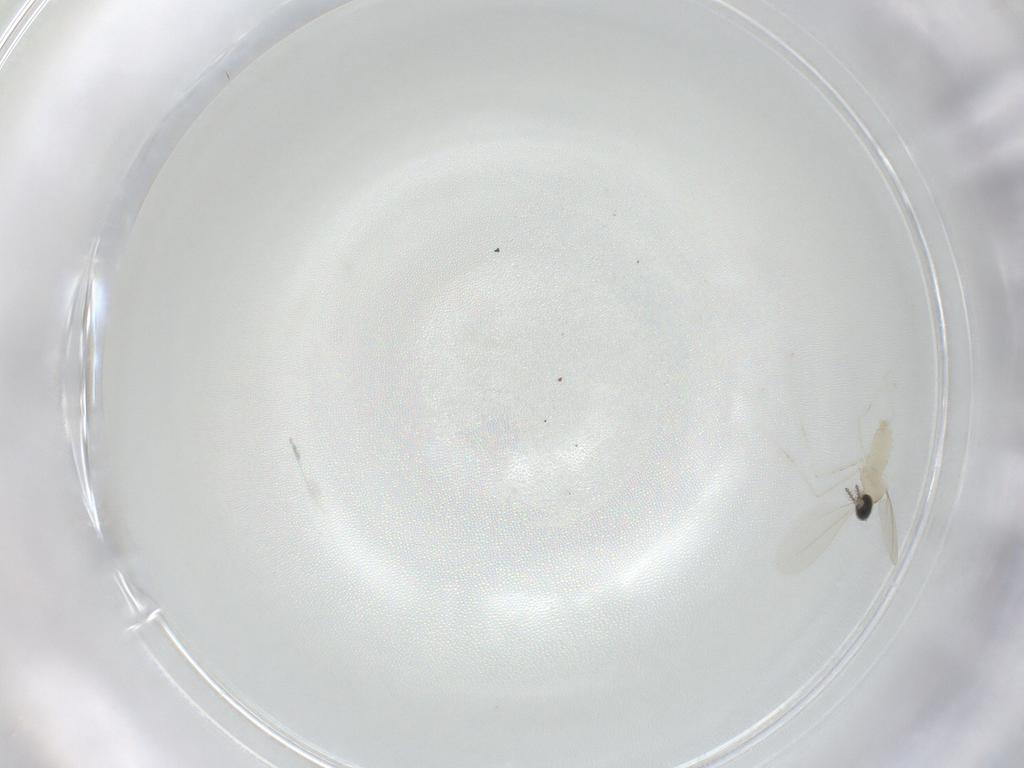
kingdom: Animalia
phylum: Arthropoda
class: Insecta
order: Diptera
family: Cecidomyiidae
